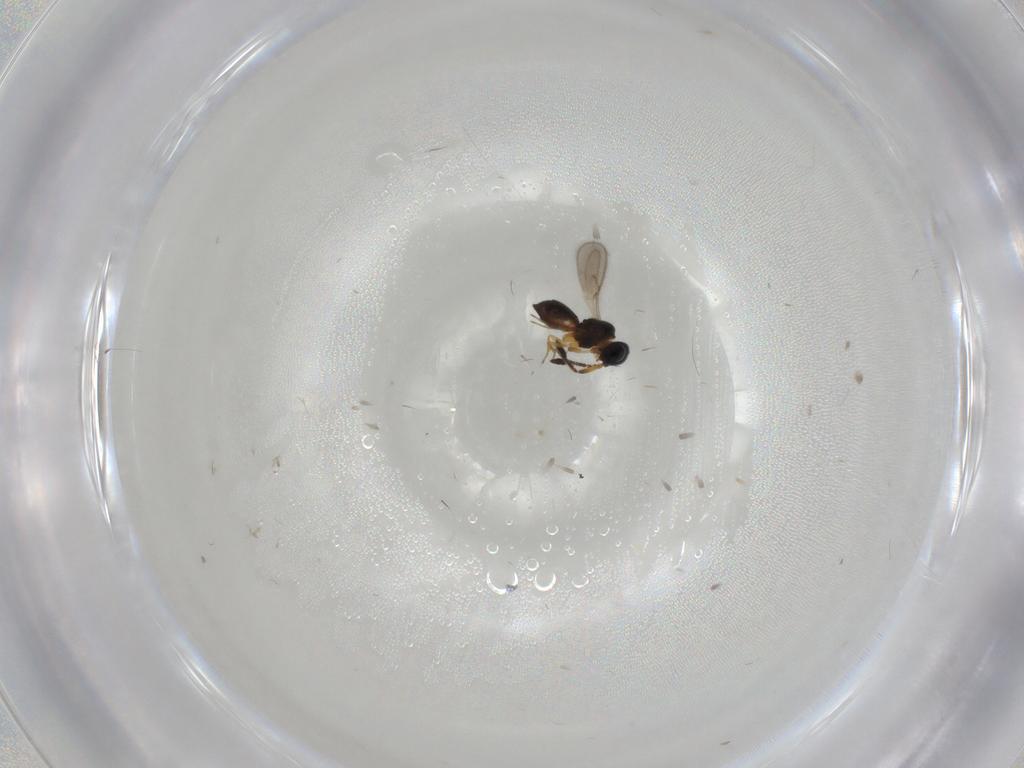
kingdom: Animalia
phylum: Arthropoda
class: Insecta
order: Hymenoptera
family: Scelionidae
